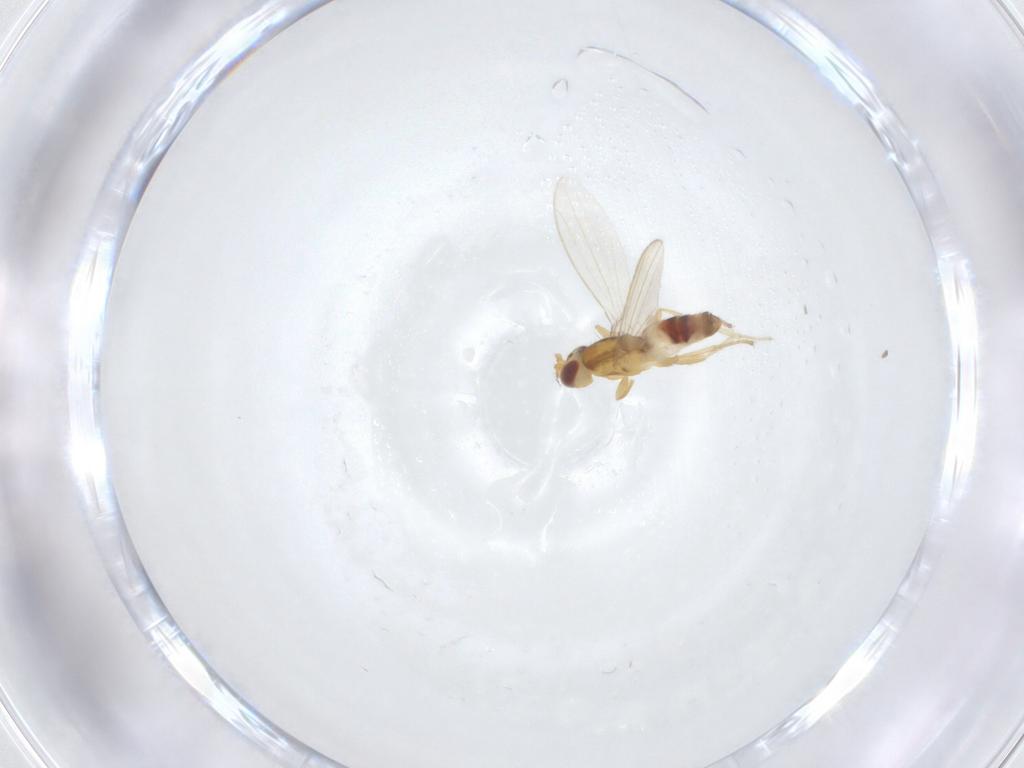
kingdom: Animalia
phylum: Arthropoda
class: Insecta
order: Diptera
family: Periscelididae
